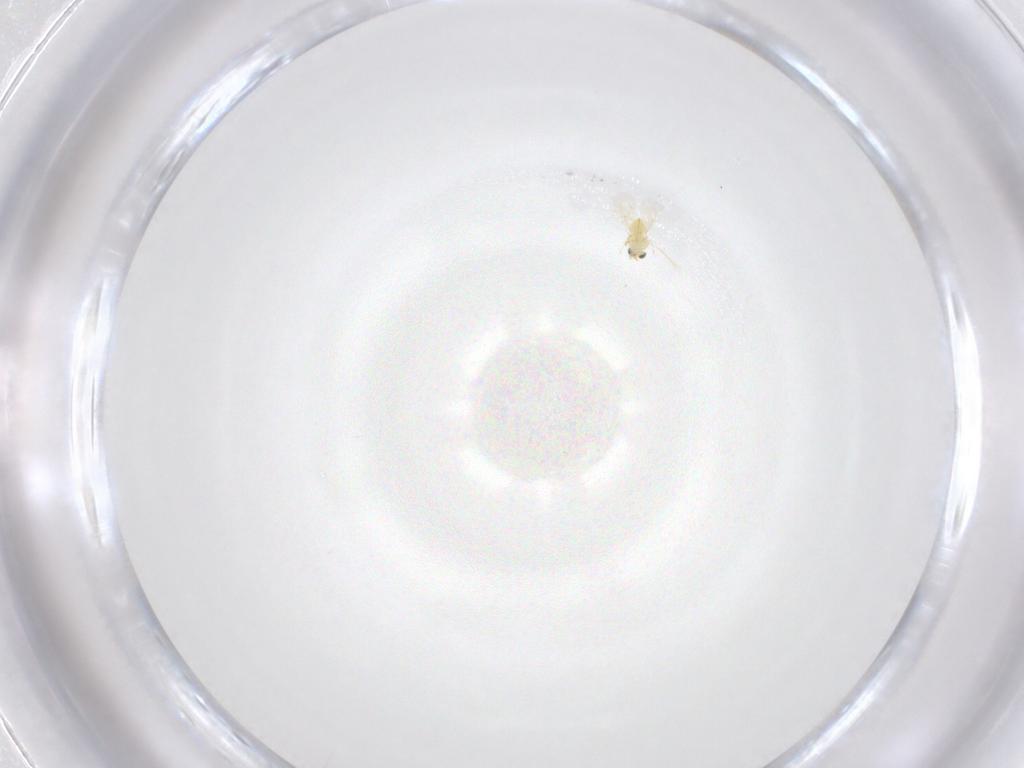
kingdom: Animalia
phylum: Arthropoda
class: Insecta
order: Hymenoptera
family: Trichogrammatidae
